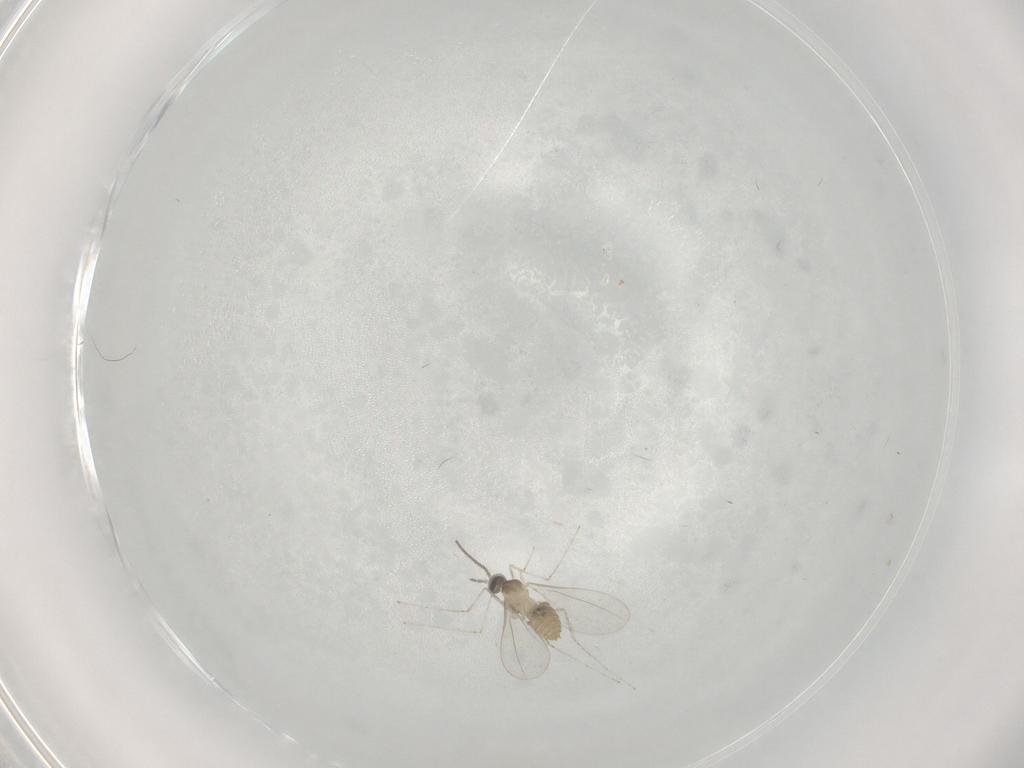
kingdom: Animalia
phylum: Arthropoda
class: Insecta
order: Diptera
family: Cecidomyiidae
